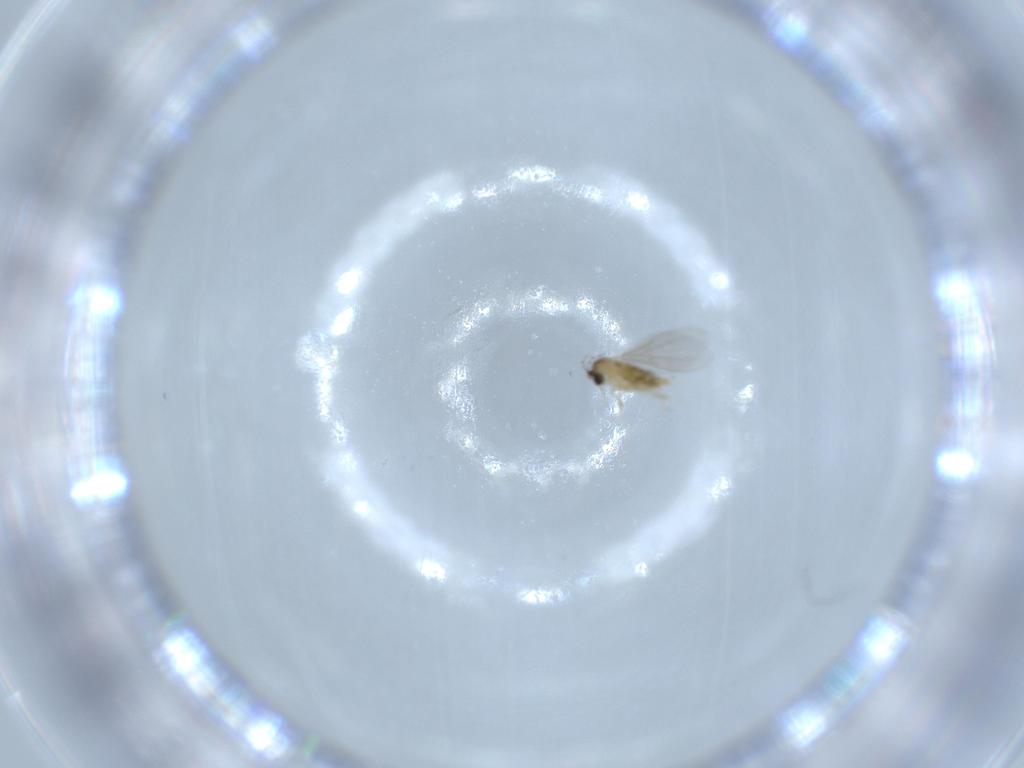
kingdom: Animalia
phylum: Arthropoda
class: Insecta
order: Diptera
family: Cecidomyiidae
